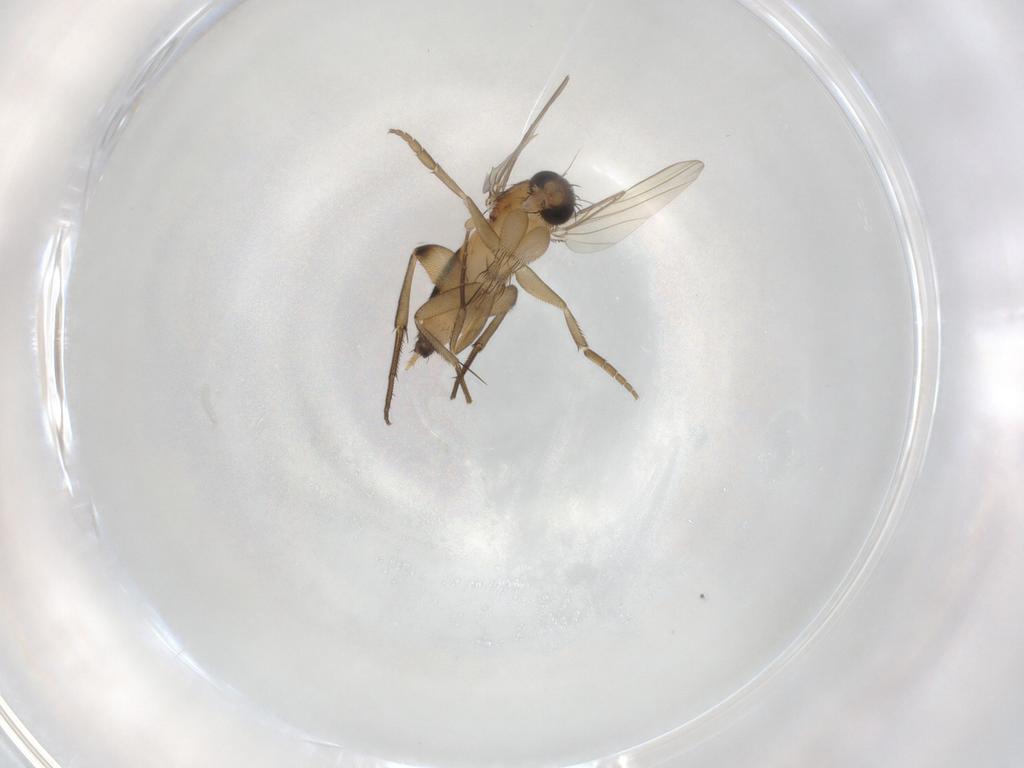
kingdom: Animalia
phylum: Arthropoda
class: Insecta
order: Diptera
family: Phoridae
